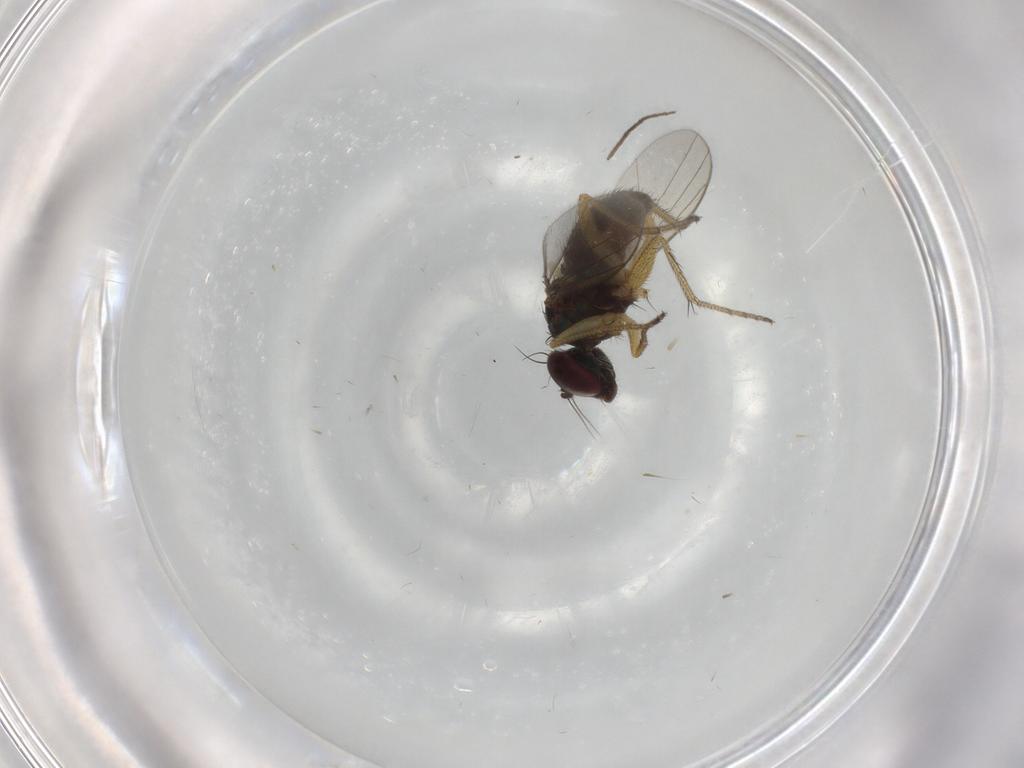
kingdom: Animalia
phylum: Arthropoda
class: Insecta
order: Diptera
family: Dolichopodidae
